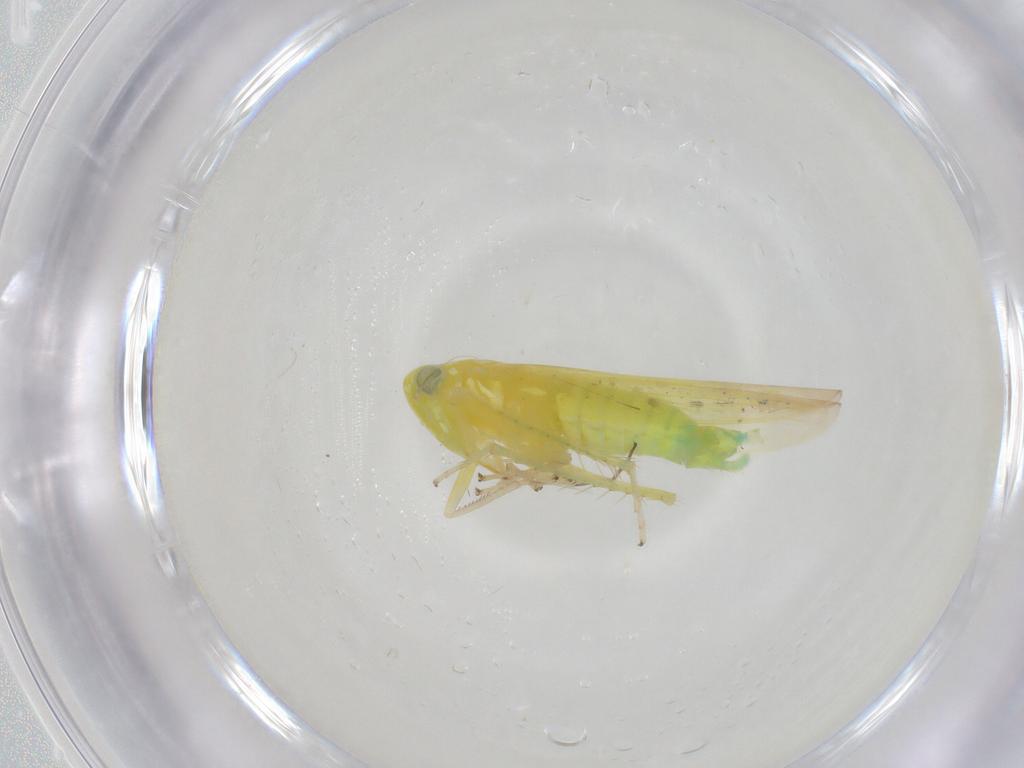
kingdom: Animalia
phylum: Arthropoda
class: Insecta
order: Hemiptera
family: Cicadellidae
